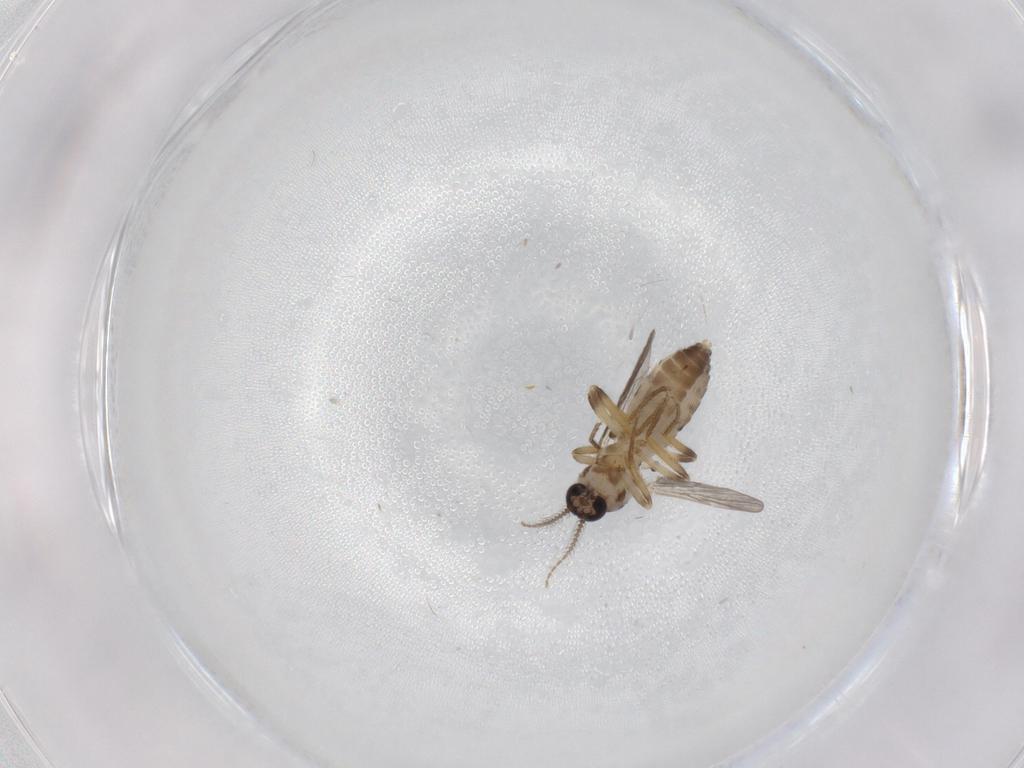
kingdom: Animalia
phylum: Arthropoda
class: Insecta
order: Diptera
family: Ceratopogonidae
